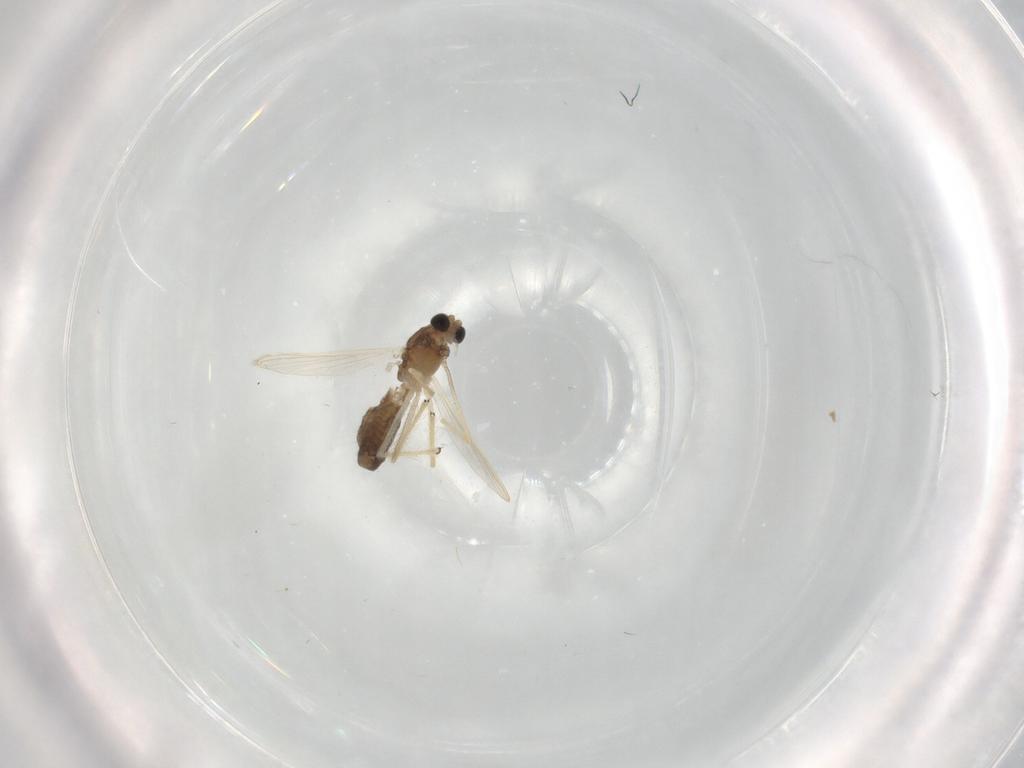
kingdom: Animalia
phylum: Arthropoda
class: Insecta
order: Diptera
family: Chironomidae
